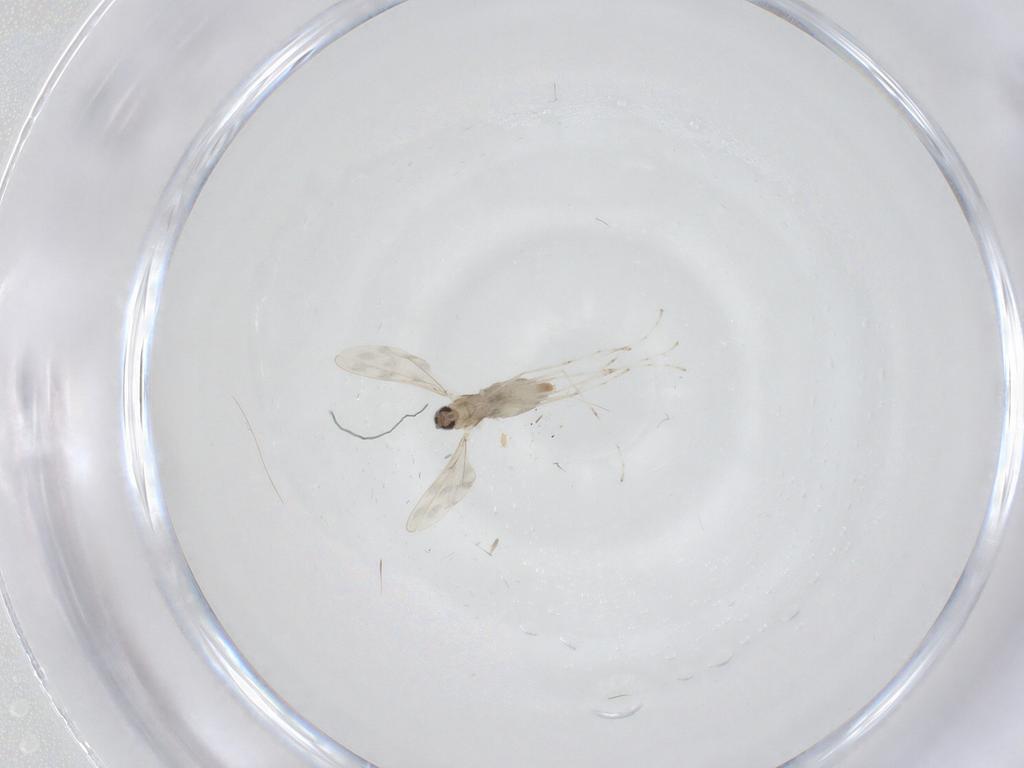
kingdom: Animalia
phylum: Arthropoda
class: Insecta
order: Diptera
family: Cecidomyiidae
